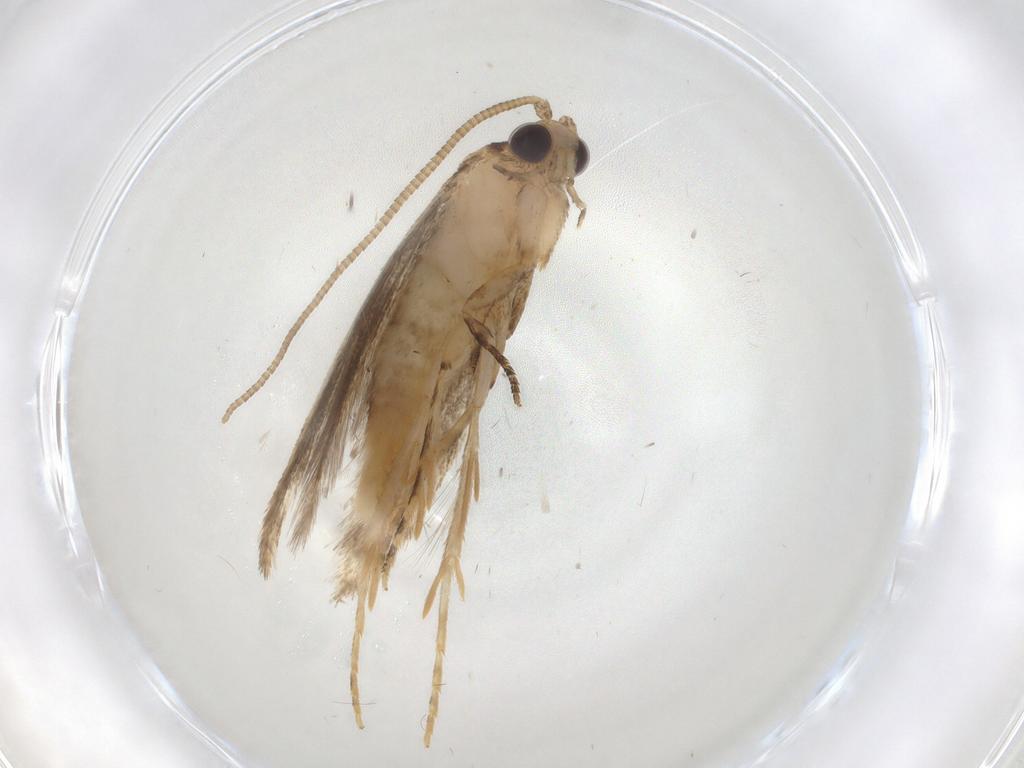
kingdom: Animalia
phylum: Arthropoda
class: Insecta
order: Lepidoptera
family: Tineidae
